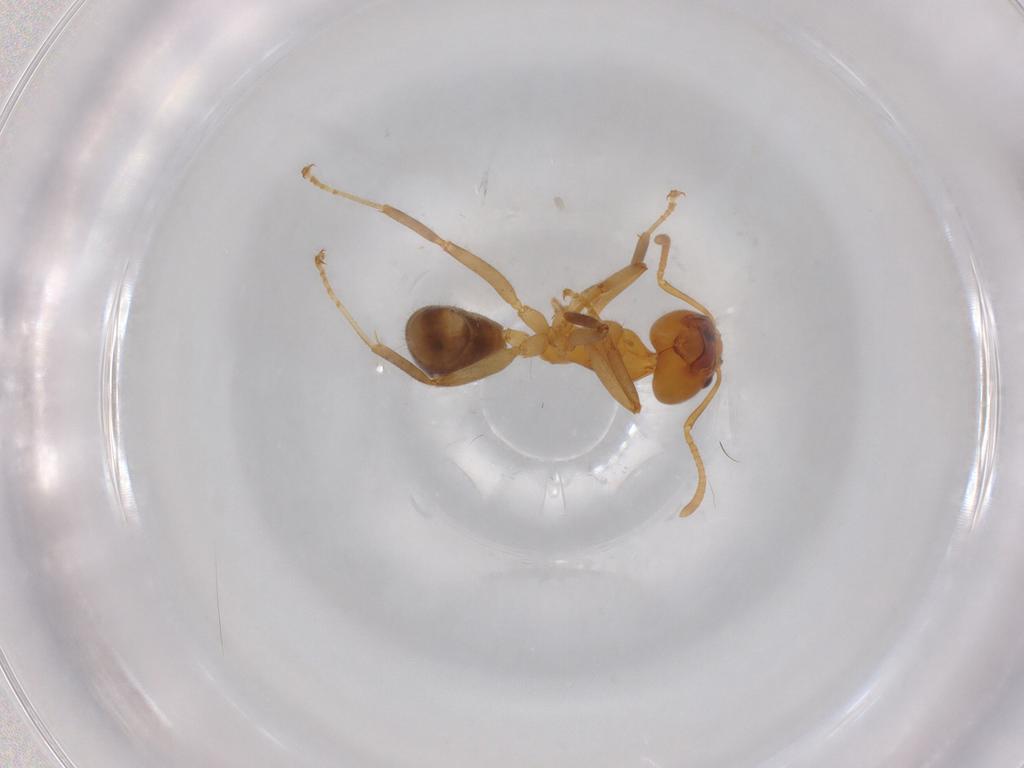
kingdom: Animalia
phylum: Arthropoda
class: Insecta
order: Hymenoptera
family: Formicidae
